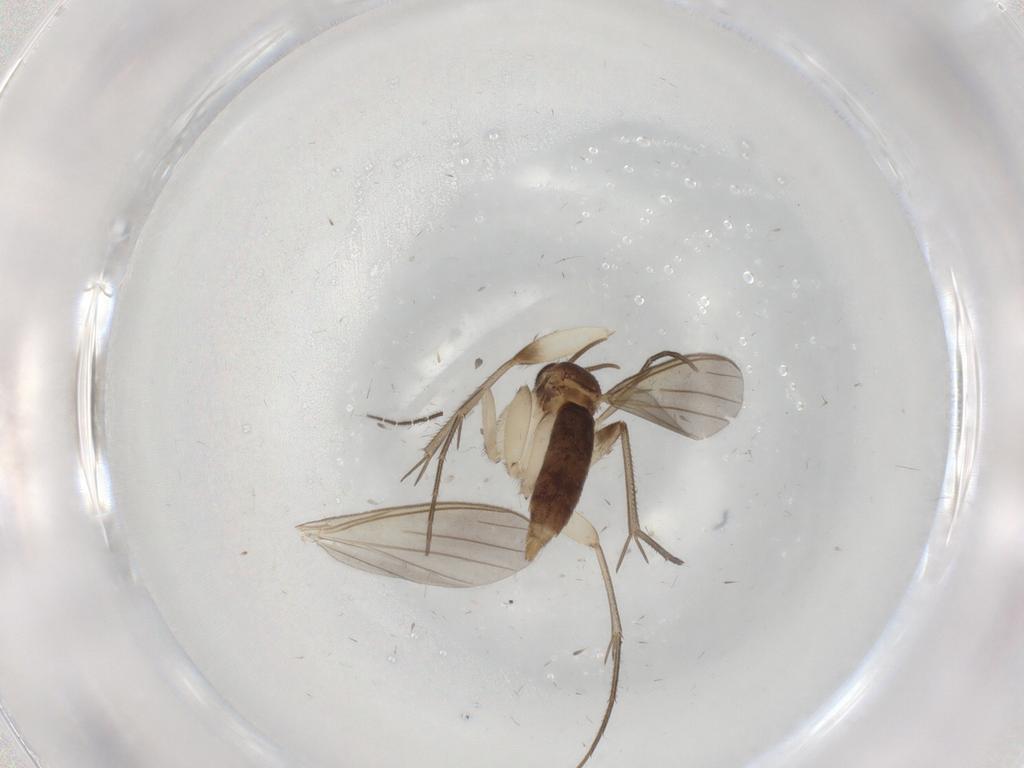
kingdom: Animalia
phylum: Arthropoda
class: Insecta
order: Diptera
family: Mycetophilidae
